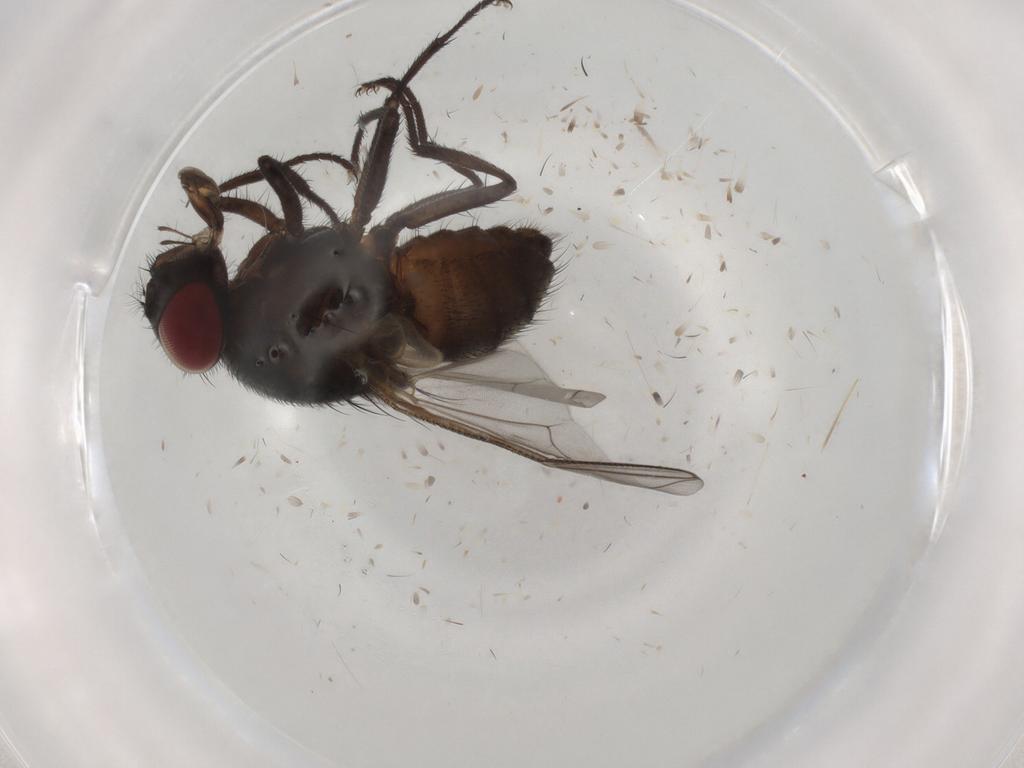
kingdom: Animalia
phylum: Arthropoda
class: Insecta
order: Diptera
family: Muscidae
